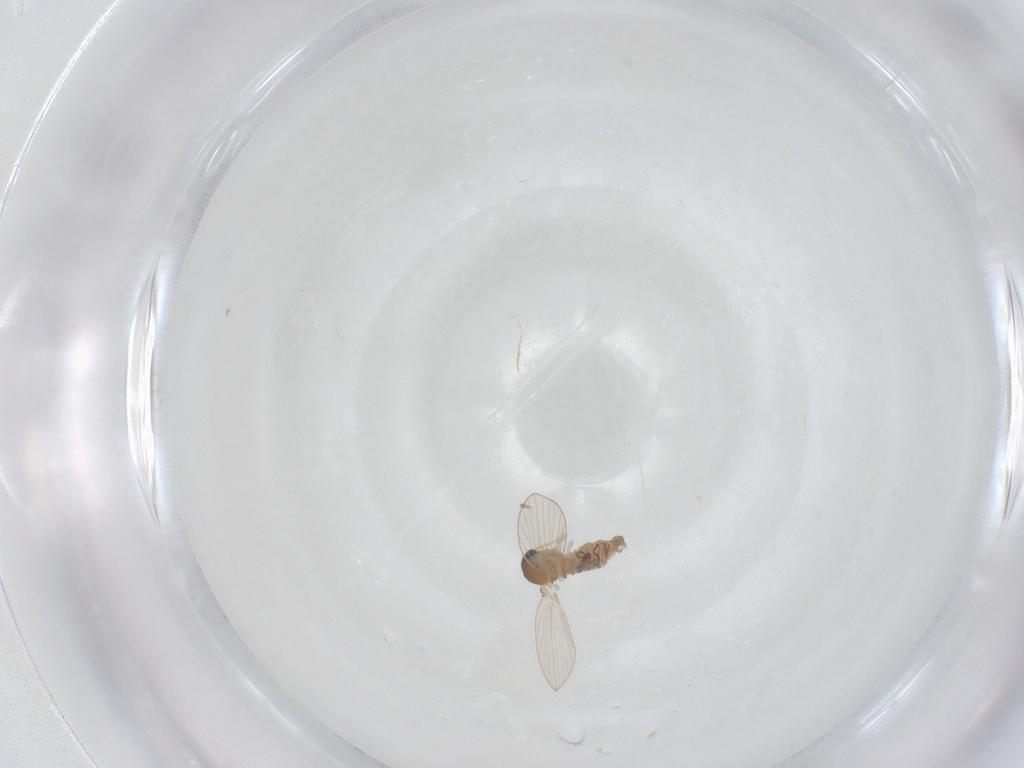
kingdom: Animalia
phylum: Arthropoda
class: Insecta
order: Diptera
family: Psychodidae
